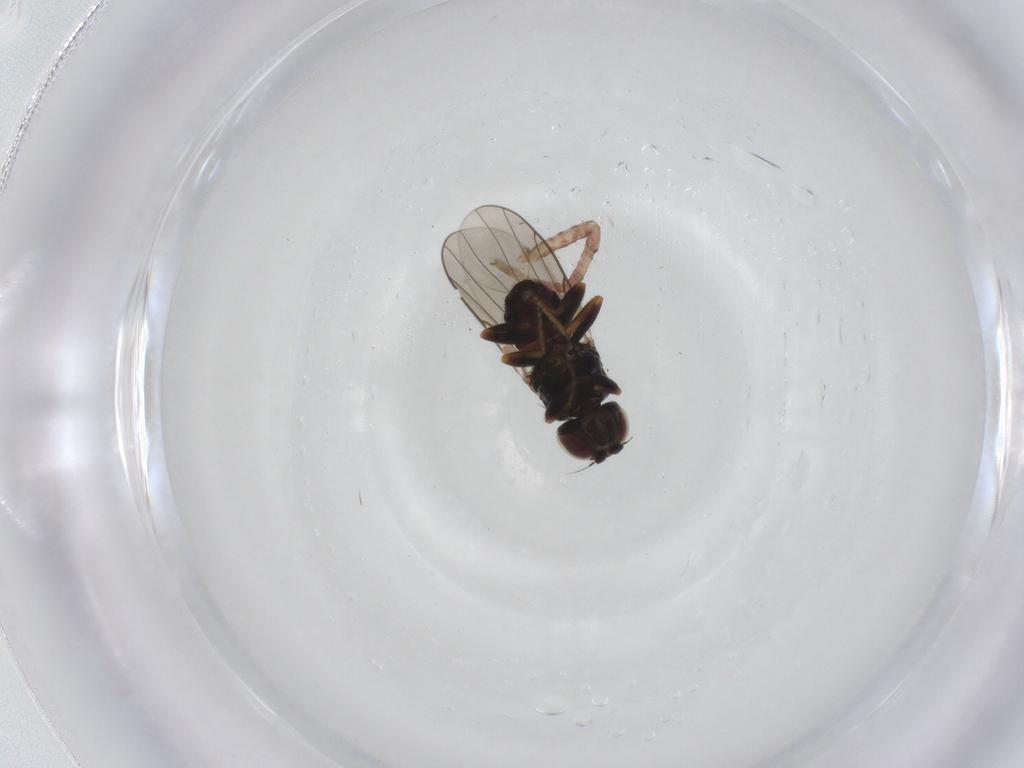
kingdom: Animalia
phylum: Arthropoda
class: Insecta
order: Diptera
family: Chloropidae
